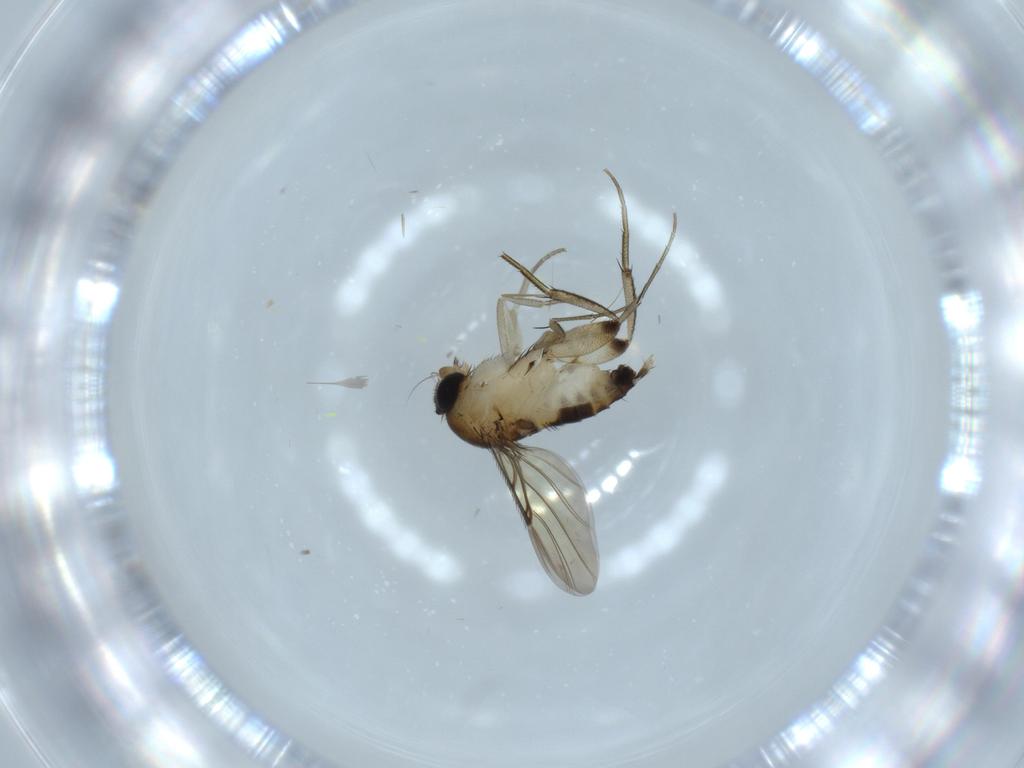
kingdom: Animalia
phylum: Arthropoda
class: Insecta
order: Diptera
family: Phoridae
